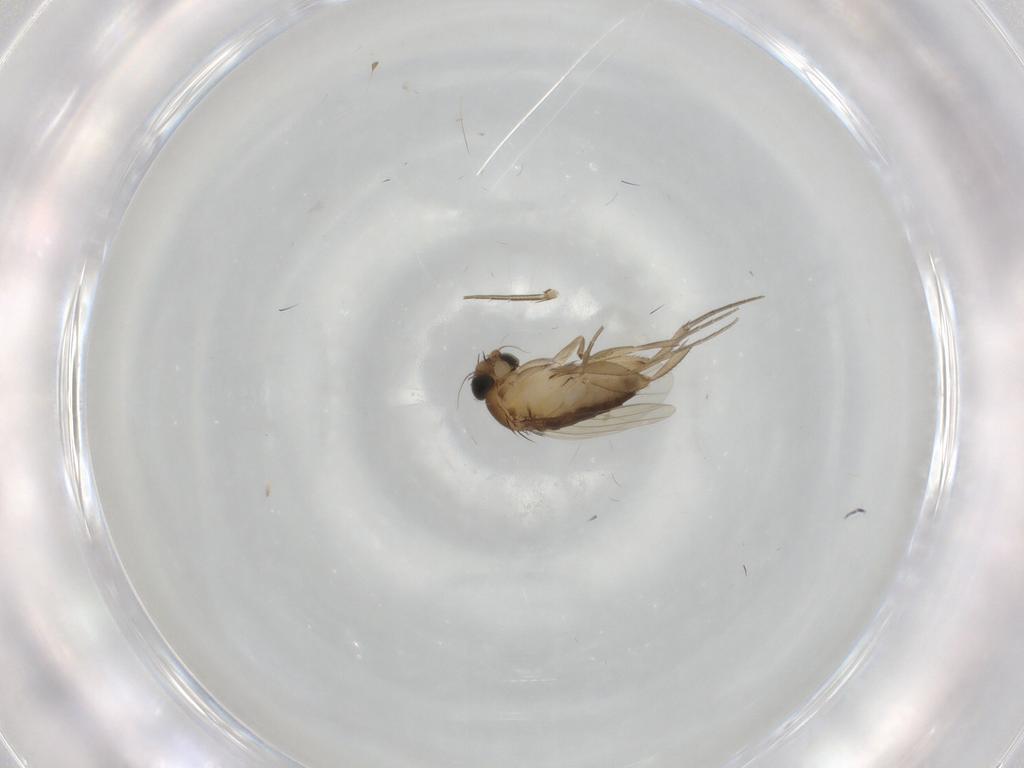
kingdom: Animalia
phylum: Arthropoda
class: Insecta
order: Diptera
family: Phoridae
